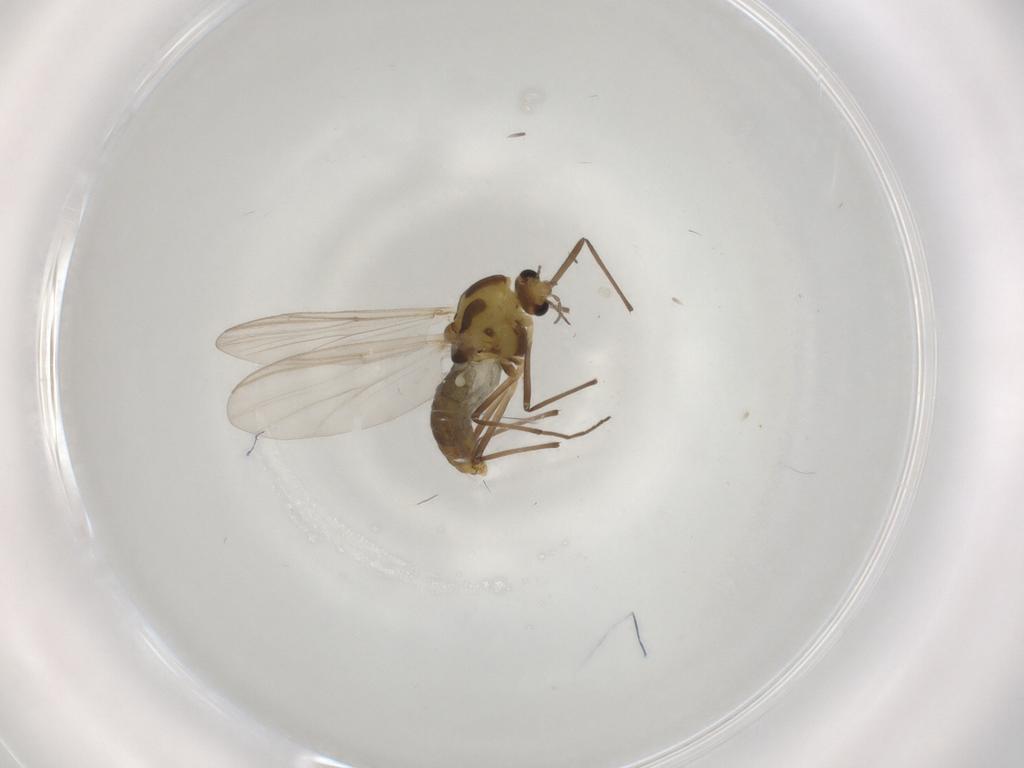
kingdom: Animalia
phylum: Arthropoda
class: Insecta
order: Diptera
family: Chironomidae
